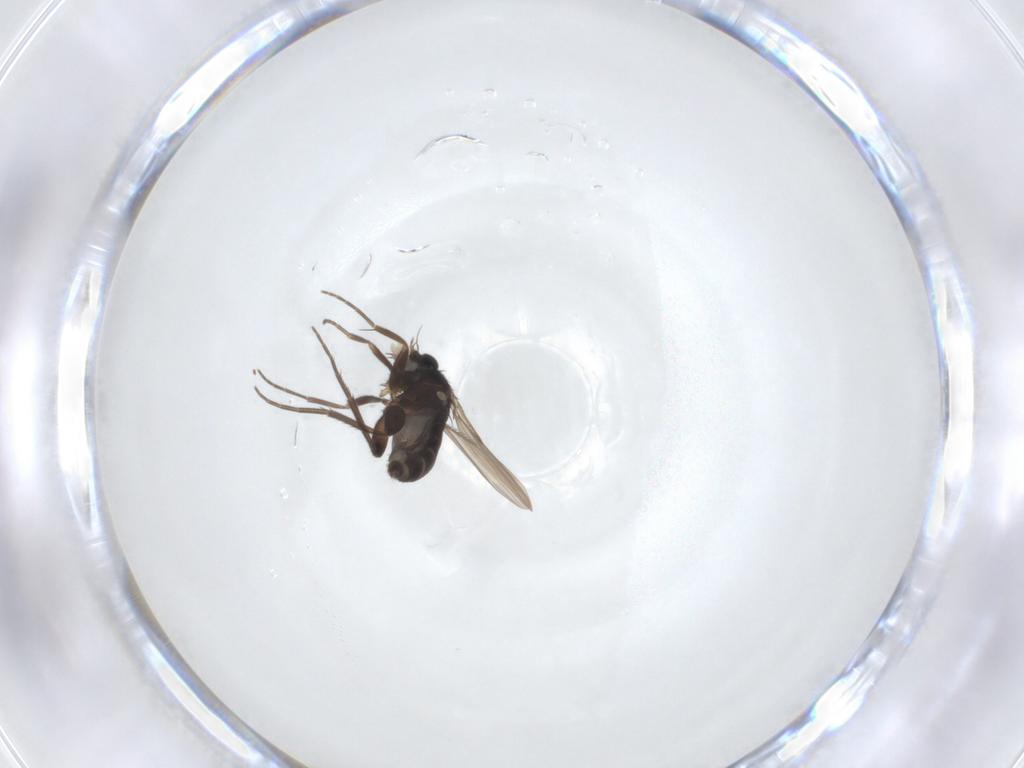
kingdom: Animalia
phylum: Arthropoda
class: Insecta
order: Diptera
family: Phoridae
